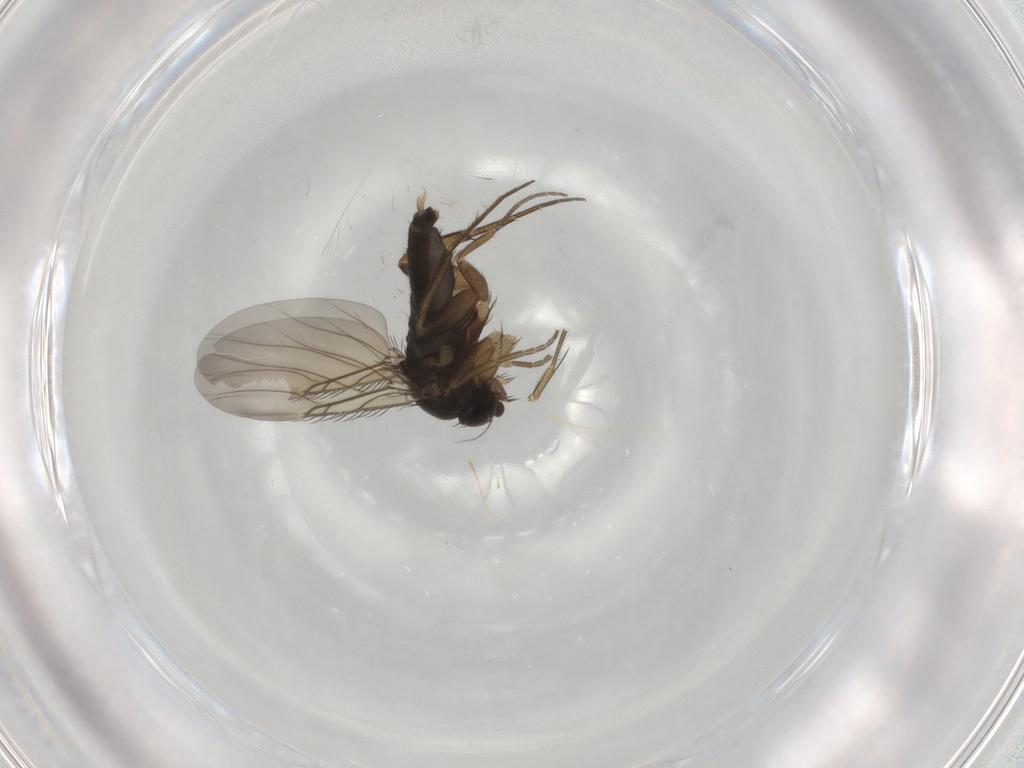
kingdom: Animalia
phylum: Arthropoda
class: Insecta
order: Diptera
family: Phoridae
